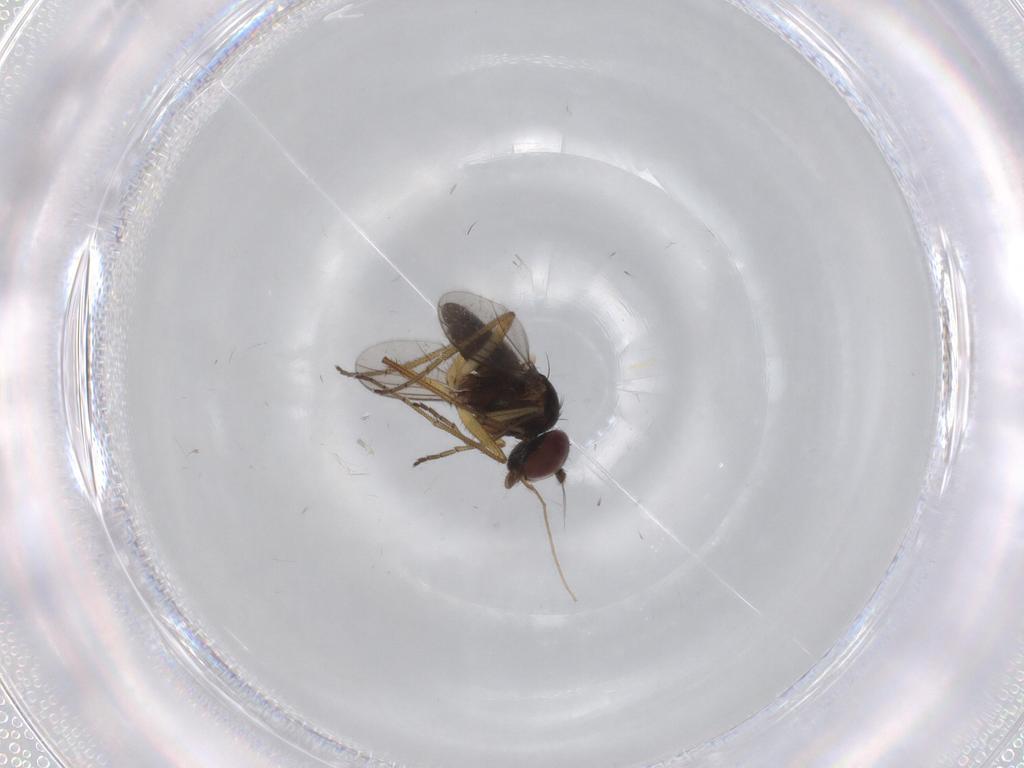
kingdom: Animalia
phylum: Arthropoda
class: Insecta
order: Diptera
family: Dolichopodidae
